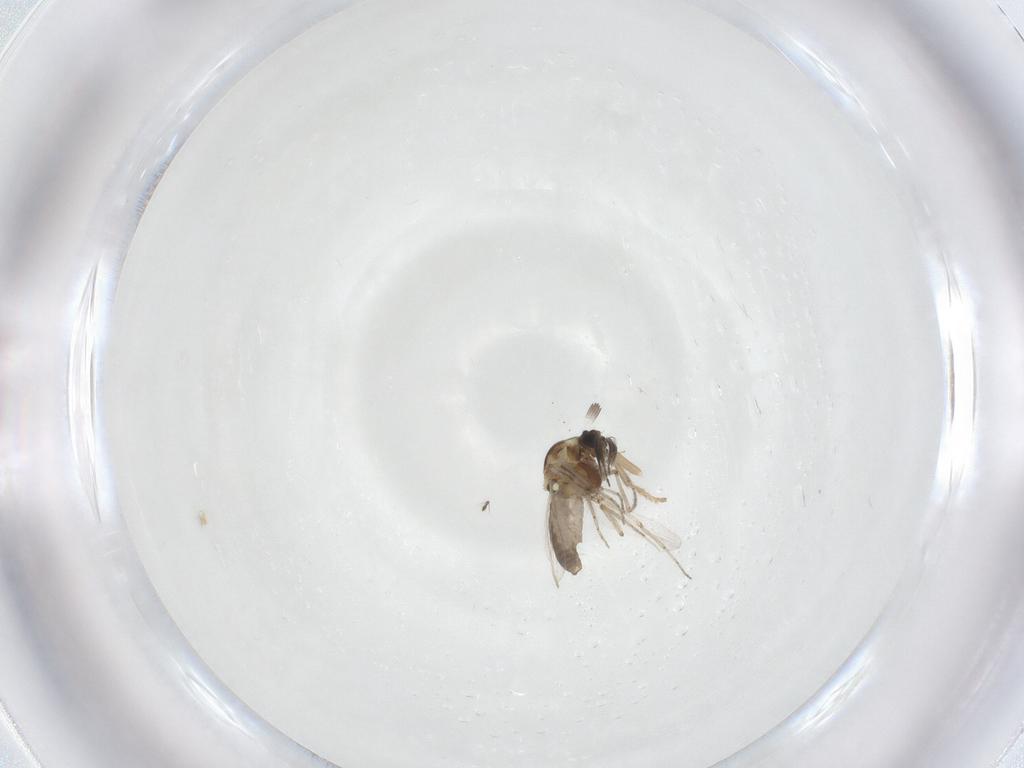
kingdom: Animalia
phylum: Arthropoda
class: Insecta
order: Diptera
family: Ceratopogonidae
